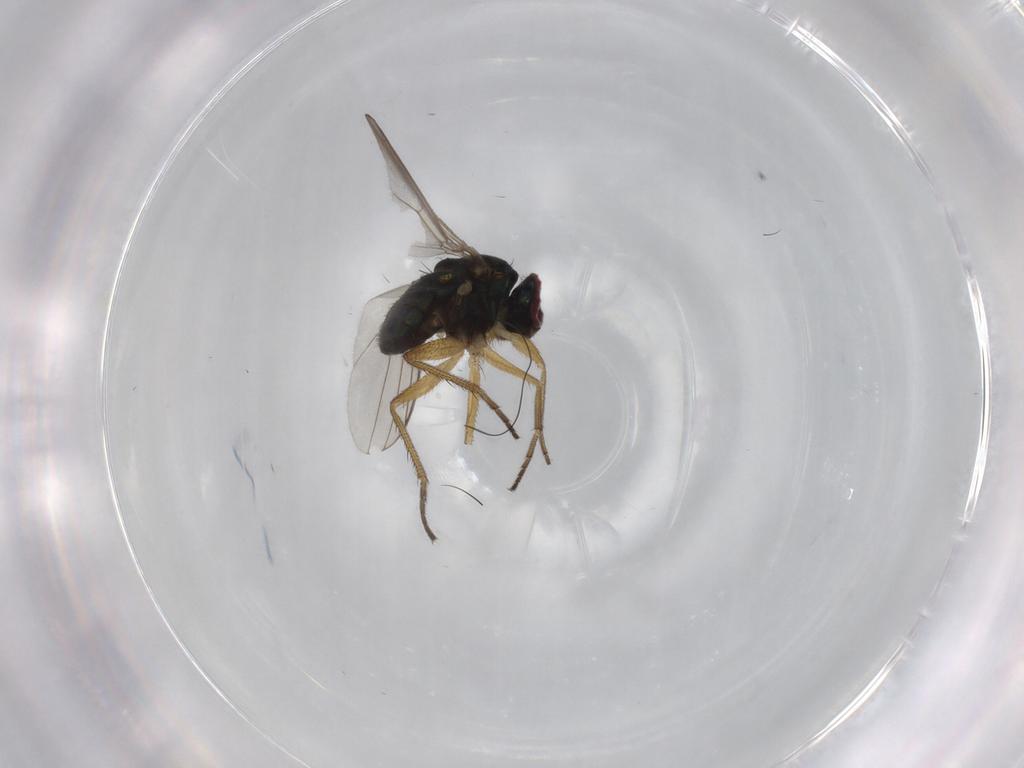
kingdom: Animalia
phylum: Arthropoda
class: Insecta
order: Diptera
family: Dolichopodidae
